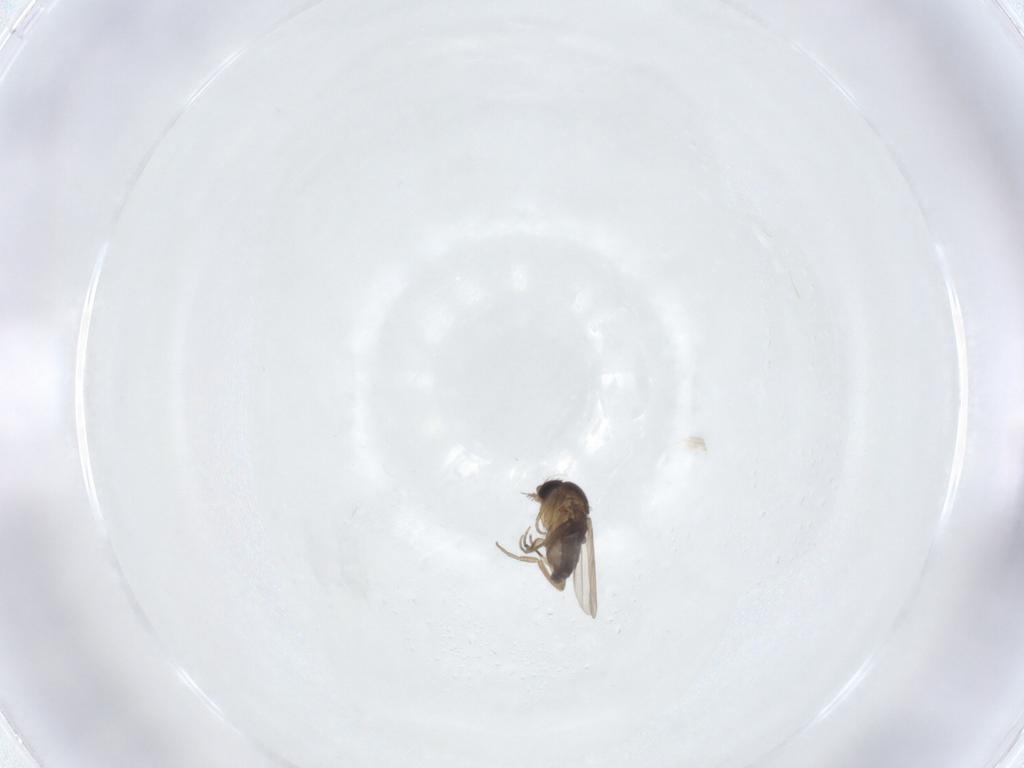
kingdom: Animalia
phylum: Arthropoda
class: Insecta
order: Diptera
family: Phoridae
